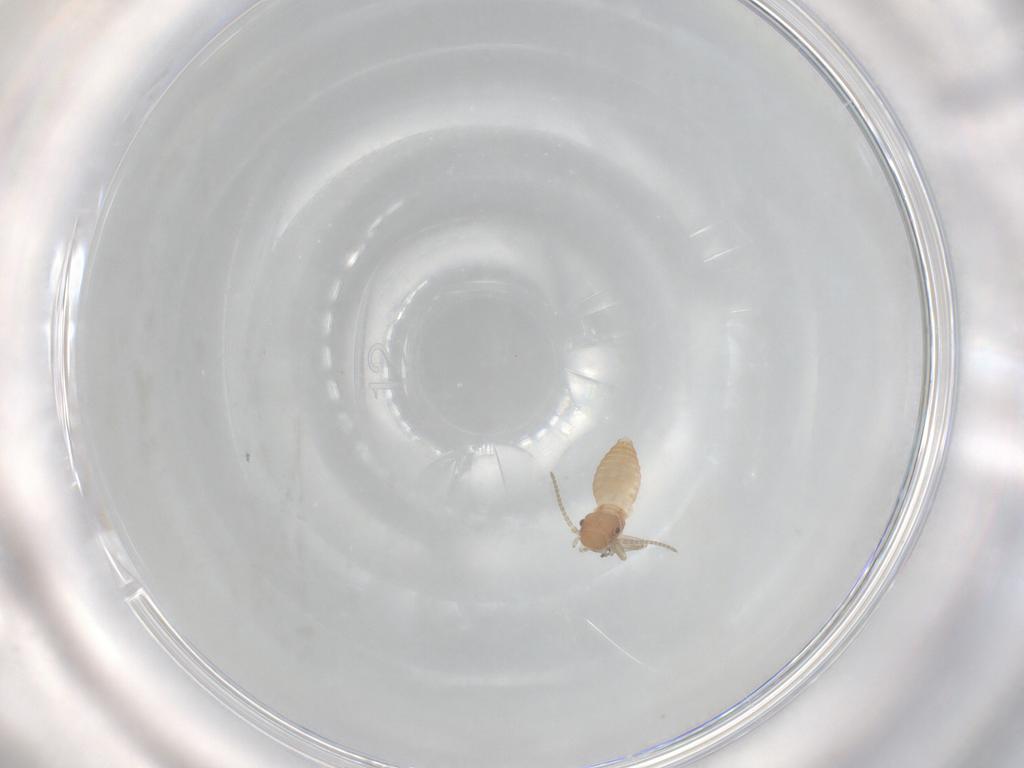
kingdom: Animalia
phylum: Arthropoda
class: Insecta
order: Psocodea
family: Caeciliusidae
